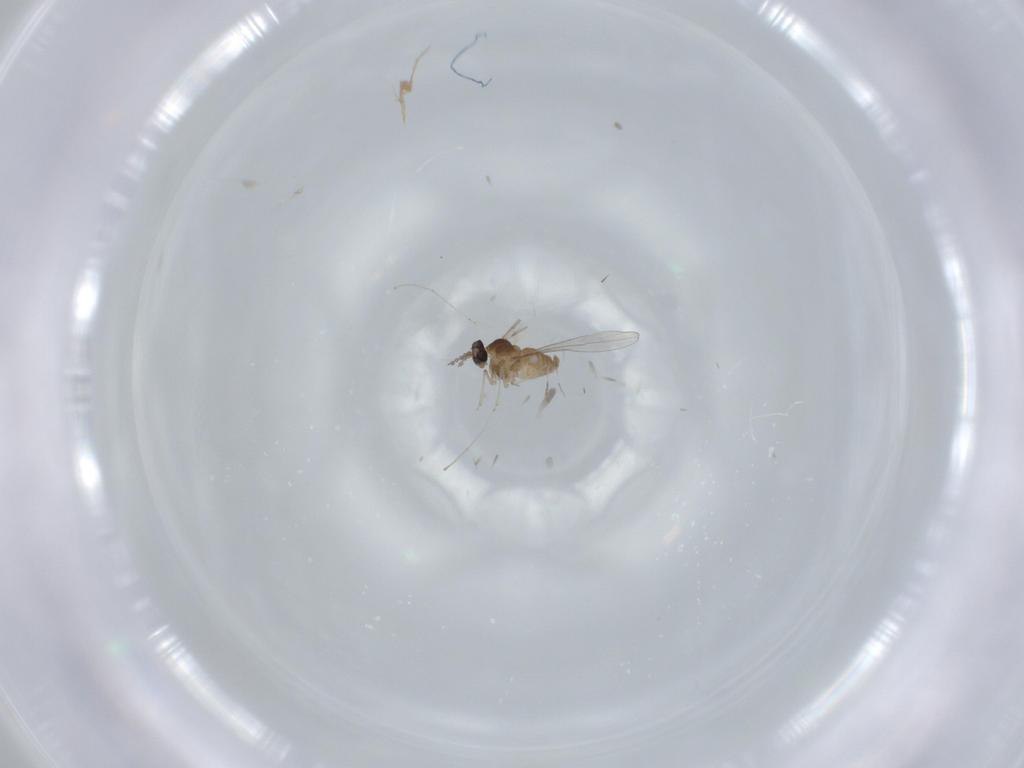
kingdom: Animalia
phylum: Arthropoda
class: Insecta
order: Diptera
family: Cecidomyiidae
